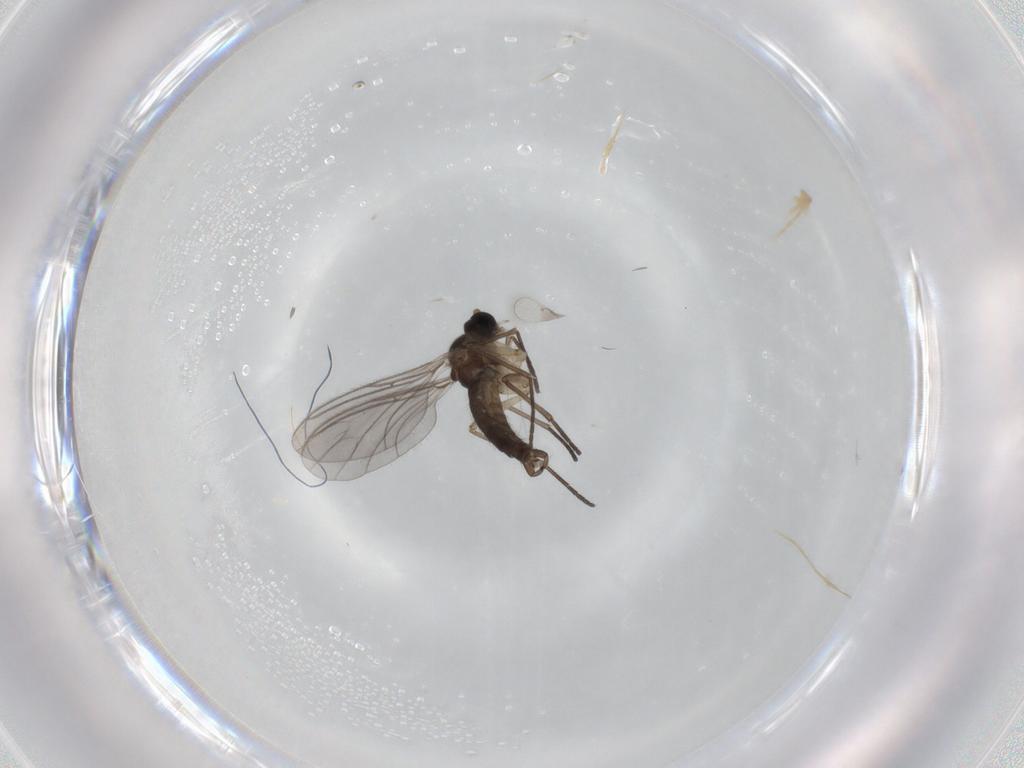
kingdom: Animalia
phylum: Arthropoda
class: Insecta
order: Diptera
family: Sciaridae
